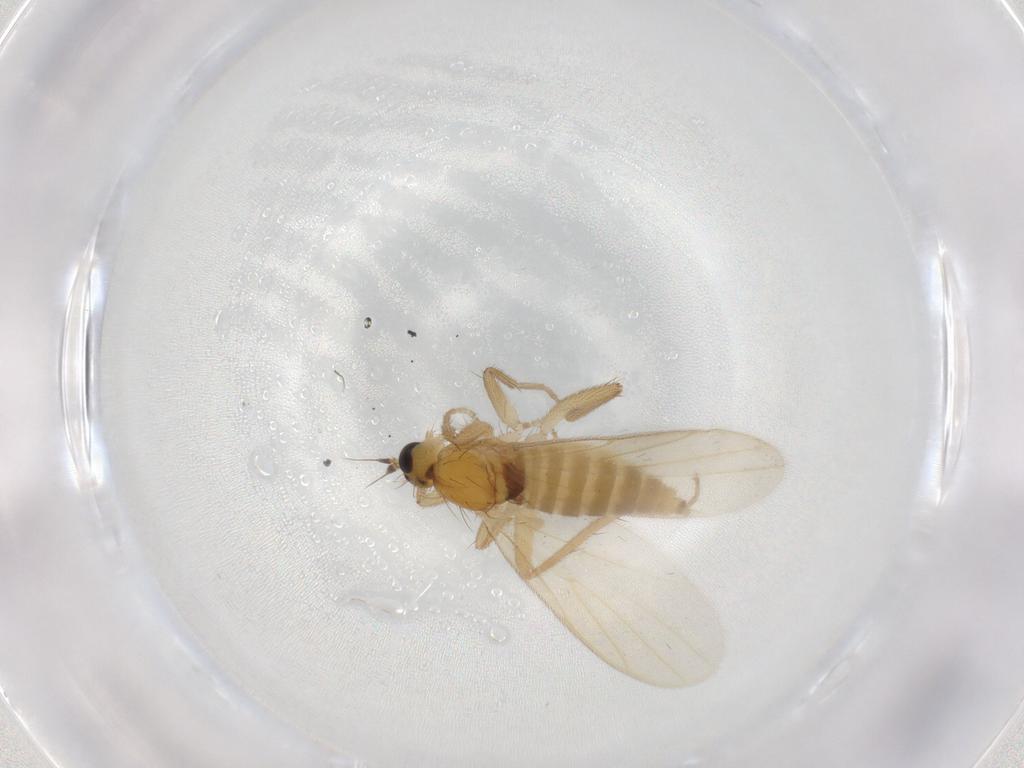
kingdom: Animalia
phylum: Arthropoda
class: Insecta
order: Diptera
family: Hybotidae
